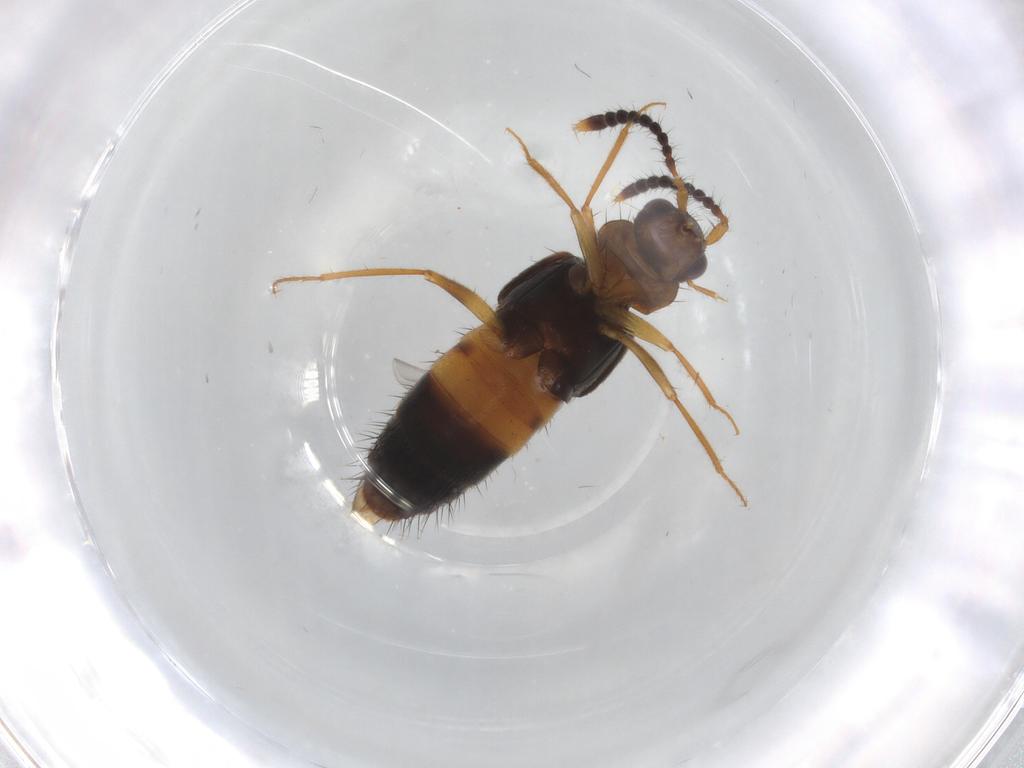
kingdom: Animalia
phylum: Arthropoda
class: Insecta
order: Coleoptera
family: Staphylinidae
